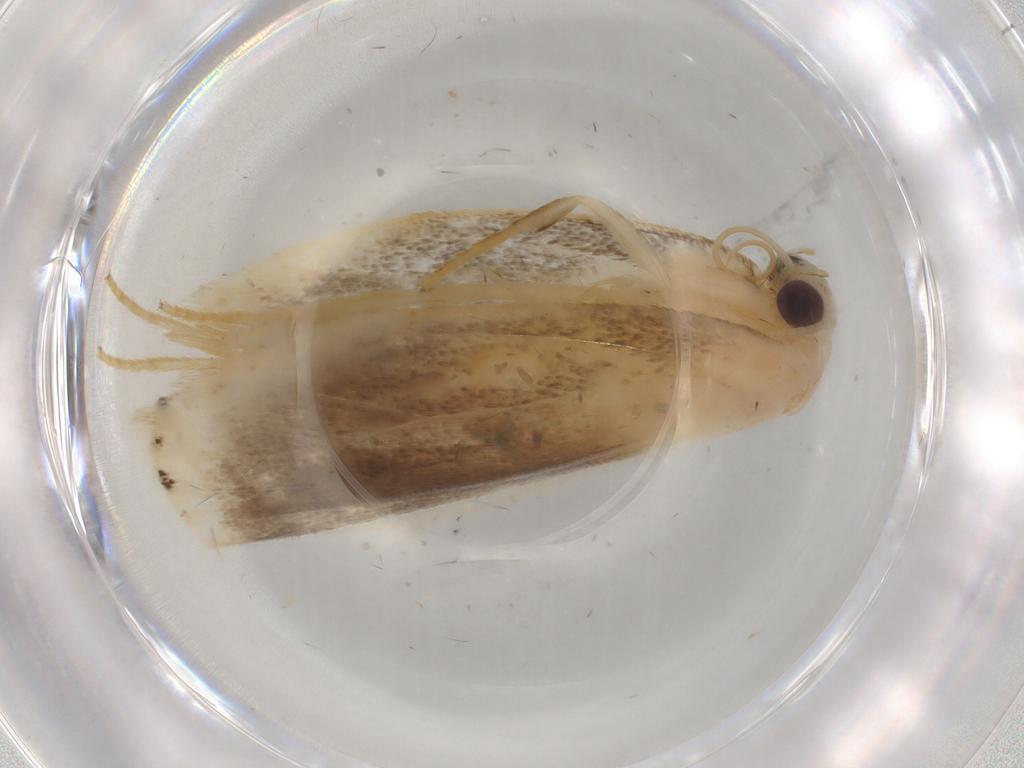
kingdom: Animalia
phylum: Arthropoda
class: Insecta
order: Lepidoptera
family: Erebidae
